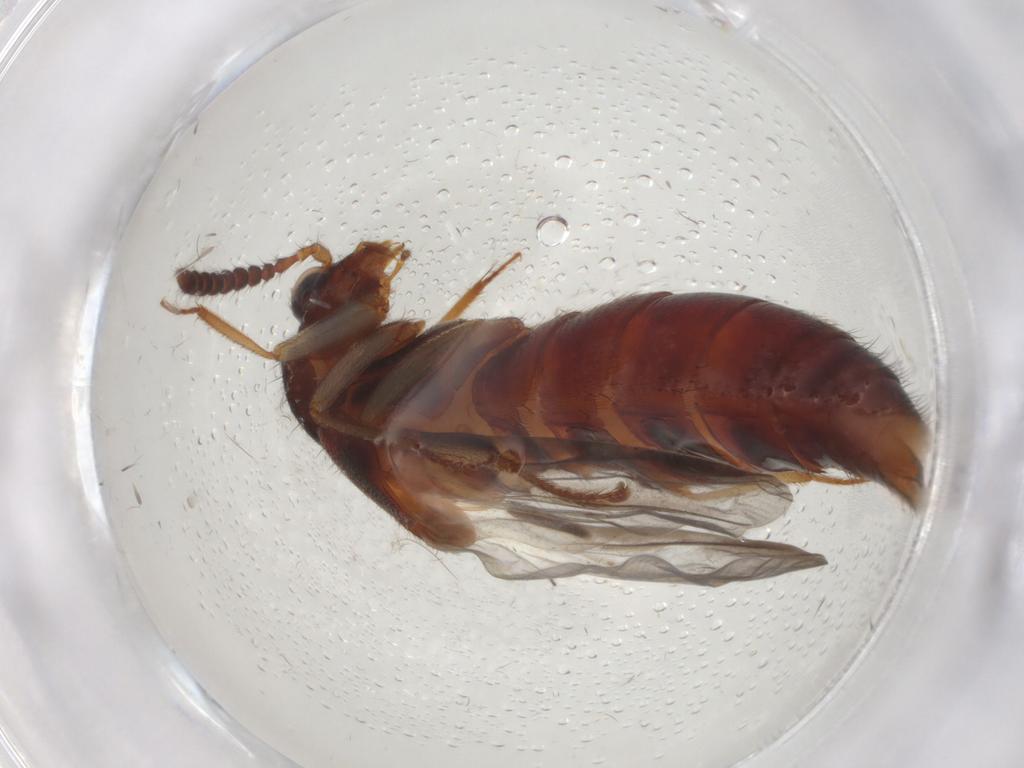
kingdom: Animalia
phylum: Arthropoda
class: Insecta
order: Coleoptera
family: Staphylinidae
